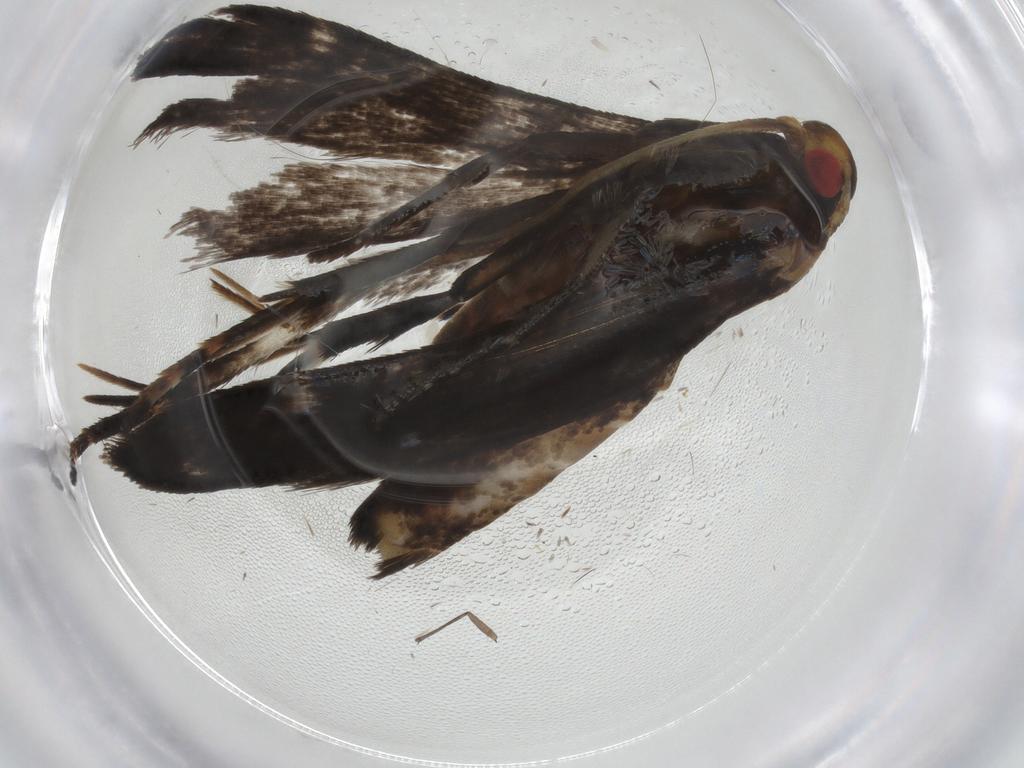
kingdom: Animalia
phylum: Arthropoda
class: Insecta
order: Lepidoptera
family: Gelechiidae
